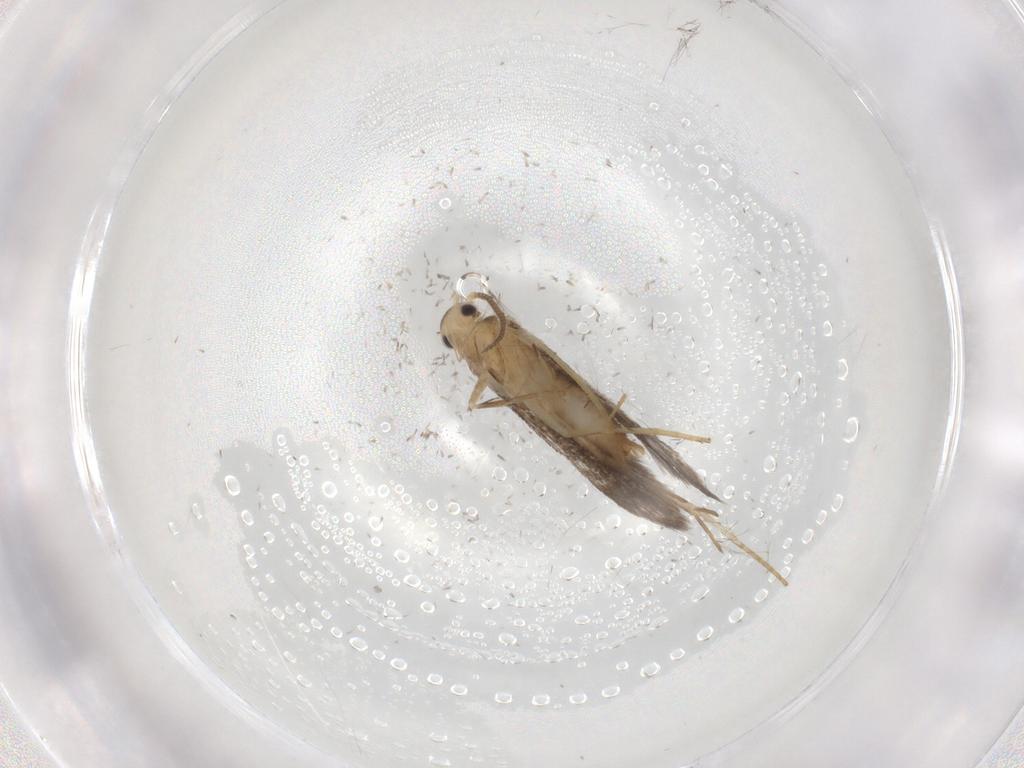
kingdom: Animalia
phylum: Arthropoda
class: Insecta
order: Lepidoptera
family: Schreckensteiniidae
